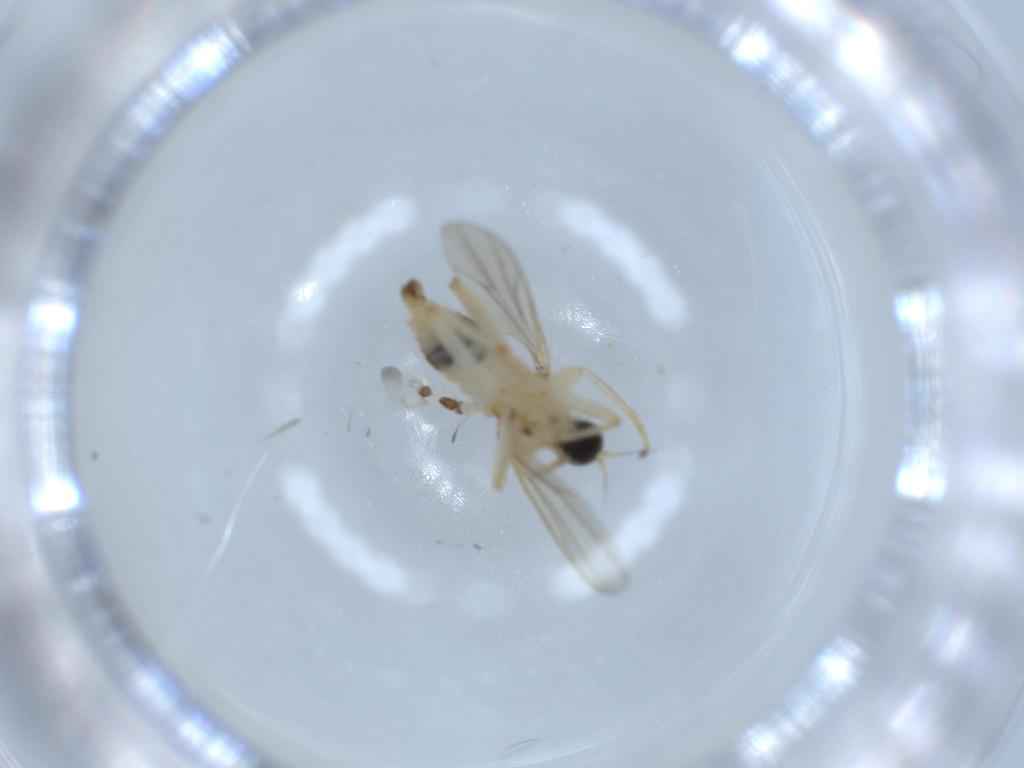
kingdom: Animalia
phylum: Arthropoda
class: Insecta
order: Diptera
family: Hybotidae
